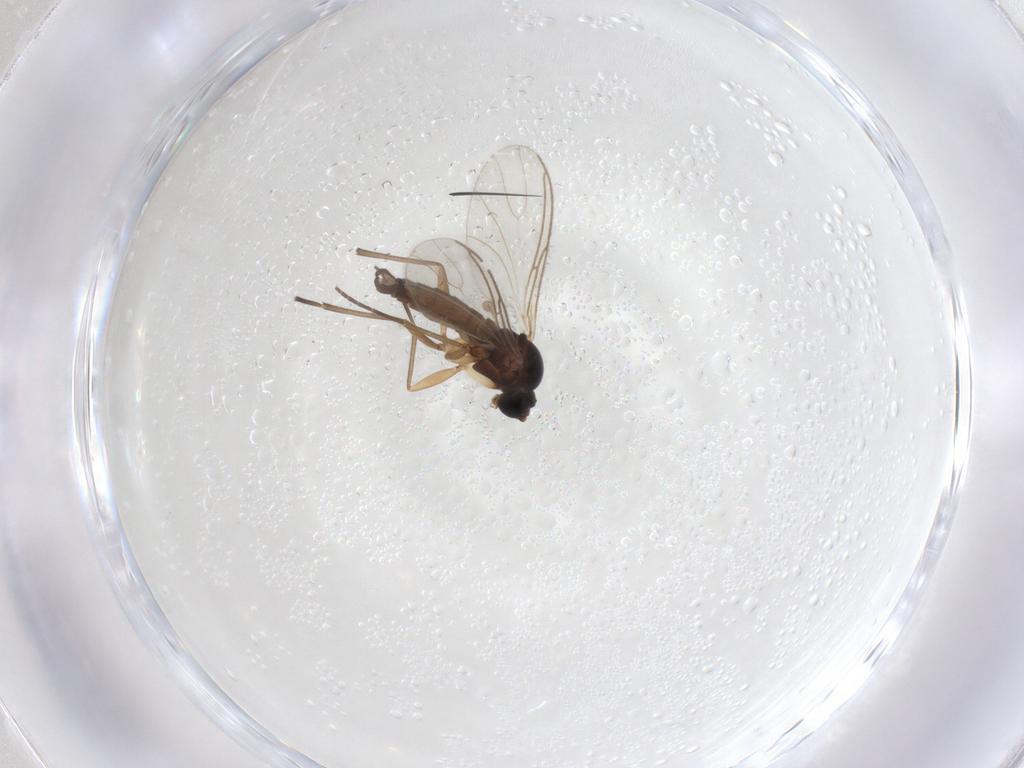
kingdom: Animalia
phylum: Arthropoda
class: Insecta
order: Diptera
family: Sciaridae
